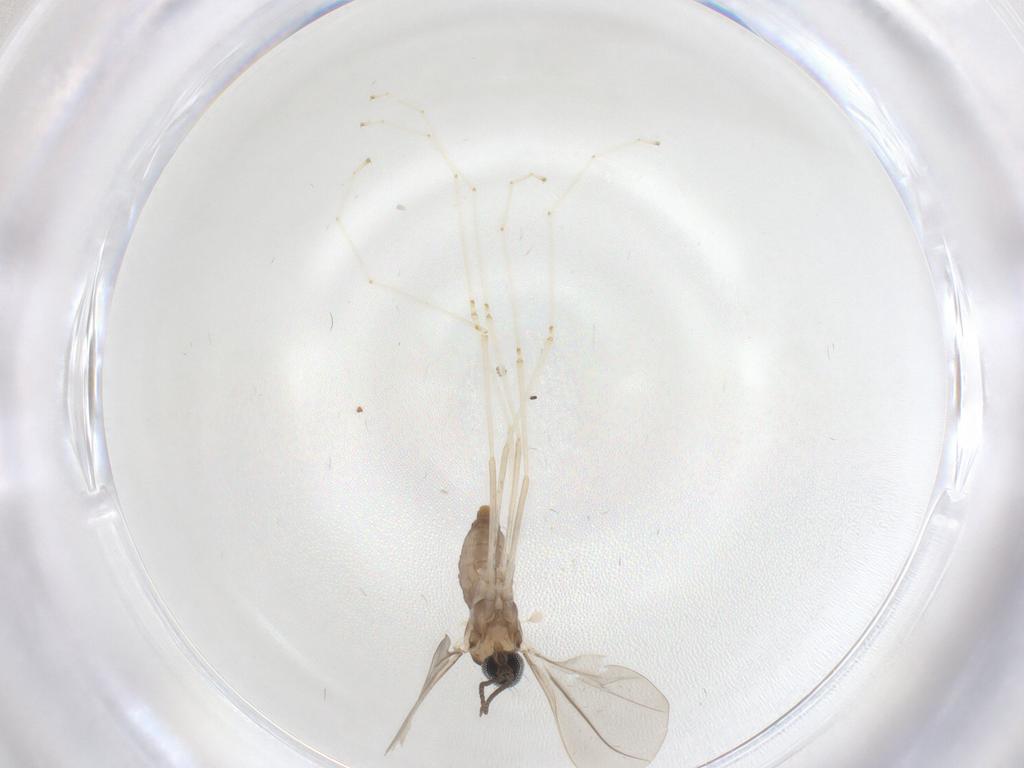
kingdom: Animalia
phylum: Arthropoda
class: Insecta
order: Diptera
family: Cecidomyiidae
